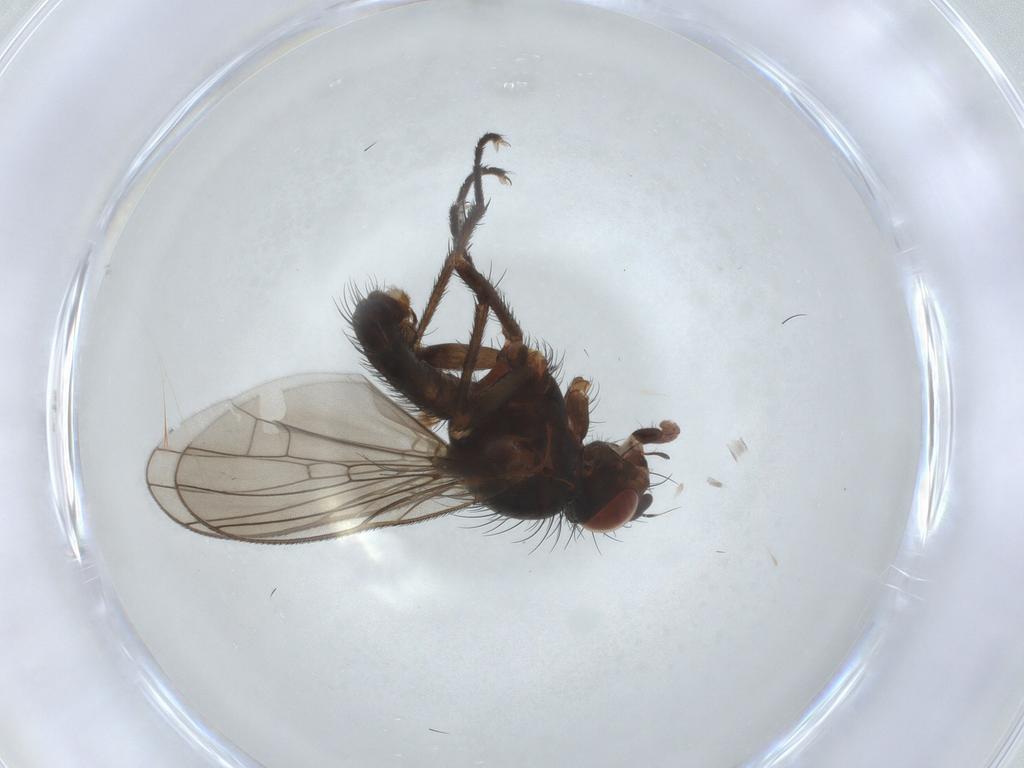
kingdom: Animalia
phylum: Arthropoda
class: Insecta
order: Diptera
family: Anthomyiidae
